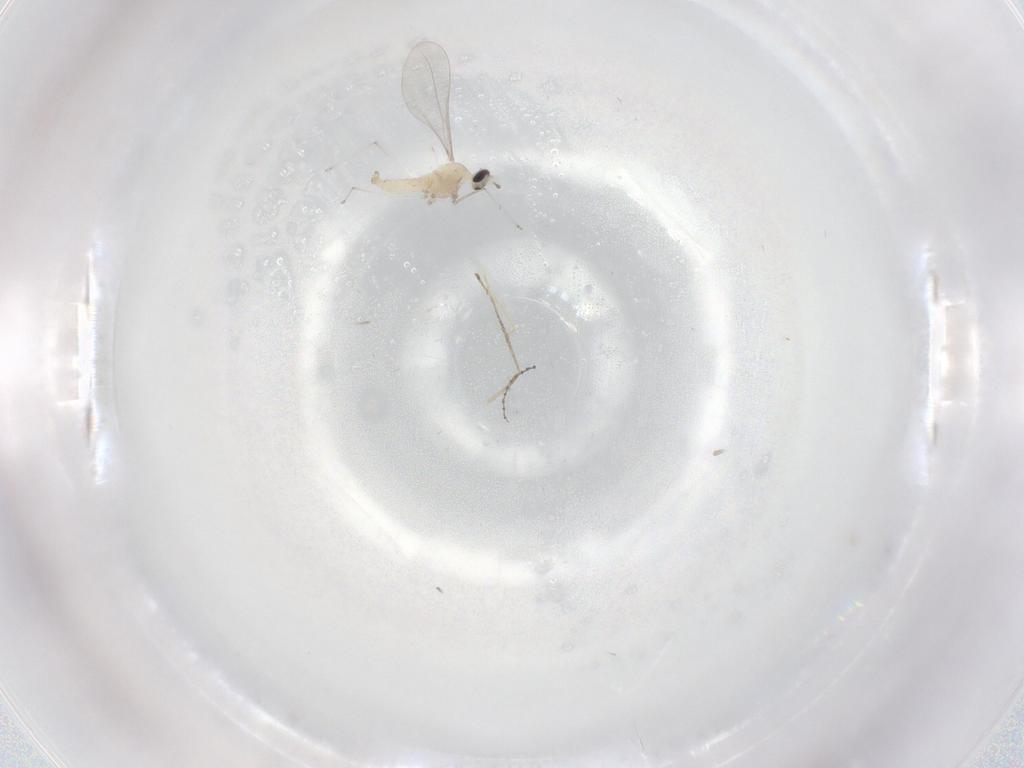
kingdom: Animalia
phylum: Arthropoda
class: Insecta
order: Diptera
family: Cecidomyiidae
